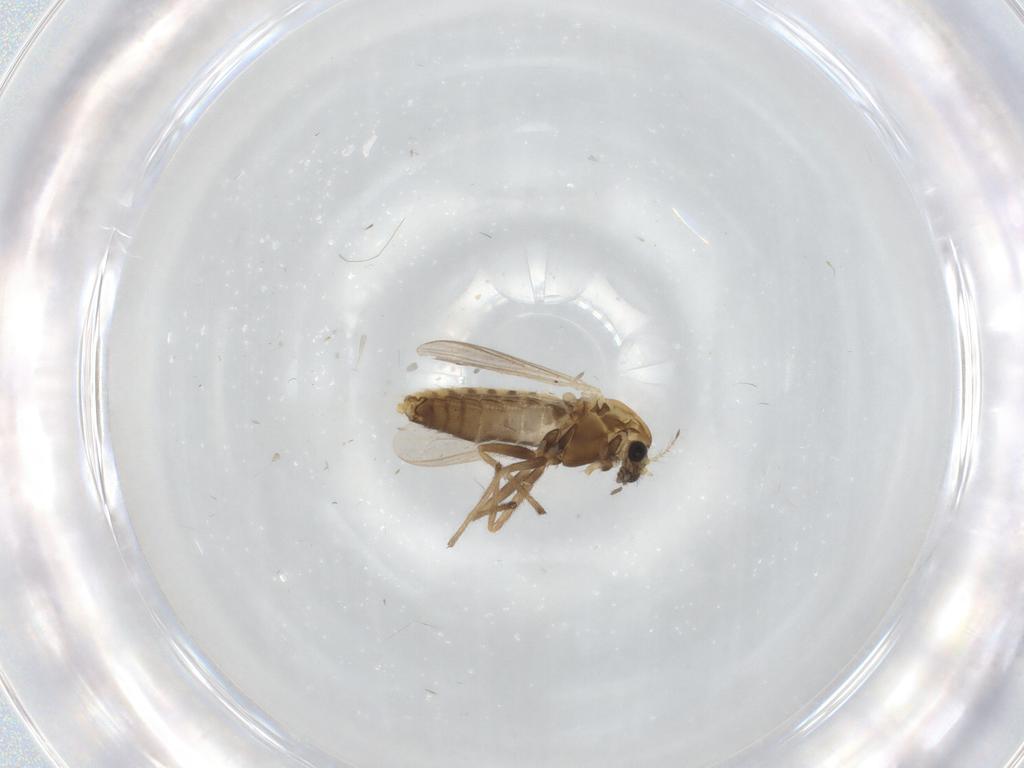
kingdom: Animalia
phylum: Arthropoda
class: Insecta
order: Diptera
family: Chironomidae
